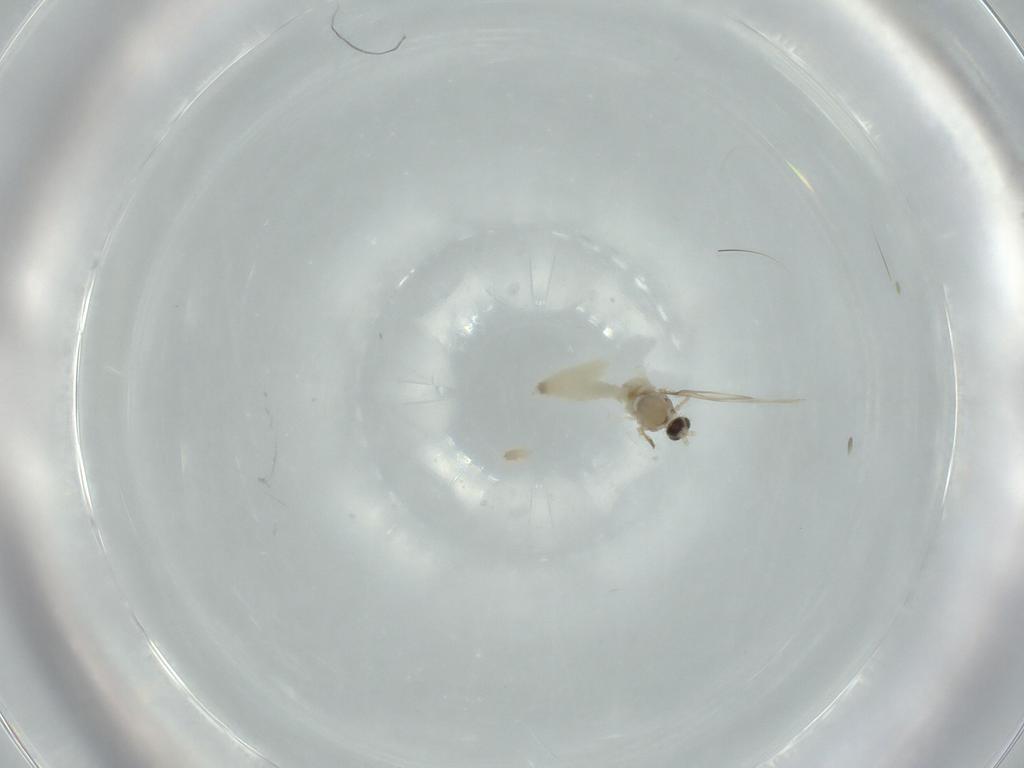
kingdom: Animalia
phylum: Arthropoda
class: Insecta
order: Diptera
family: Cecidomyiidae
